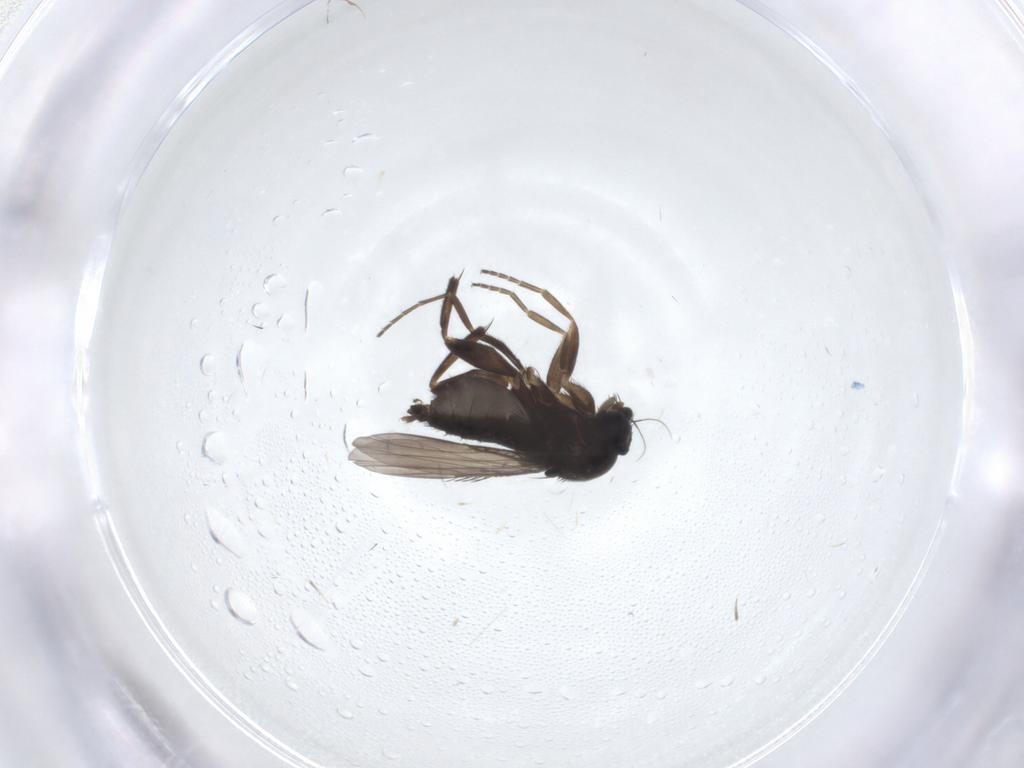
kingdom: Animalia
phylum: Arthropoda
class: Insecta
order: Diptera
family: Phoridae
